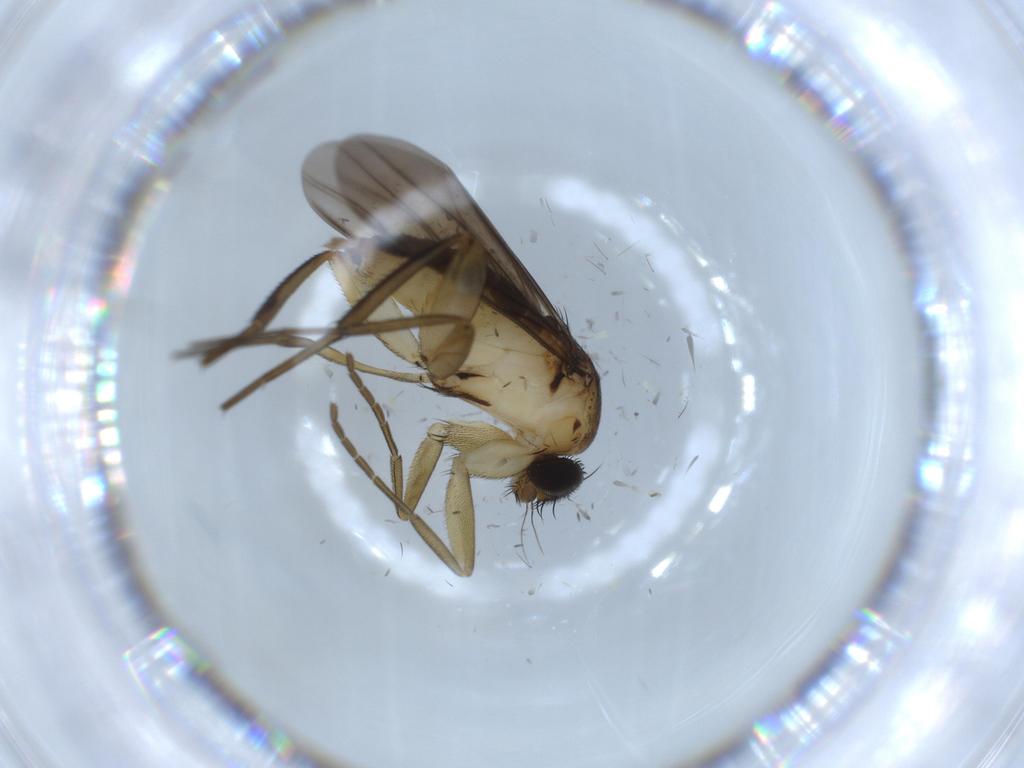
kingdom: Animalia
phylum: Arthropoda
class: Insecta
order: Diptera
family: Phoridae
